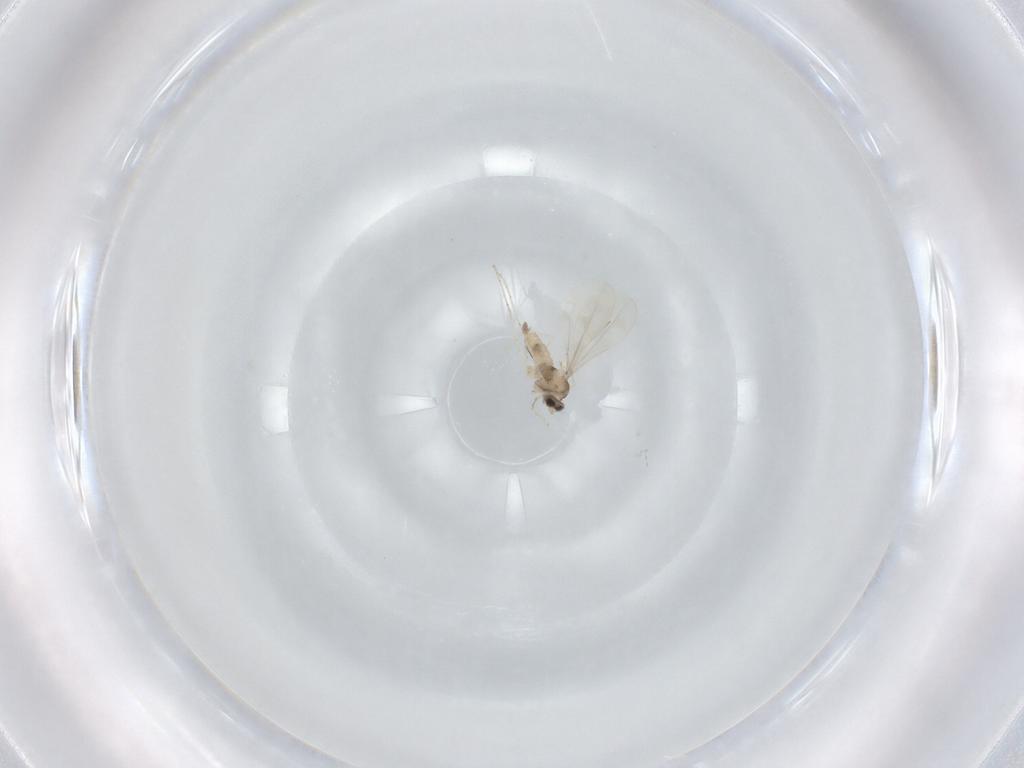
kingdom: Animalia
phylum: Arthropoda
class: Insecta
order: Diptera
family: Cecidomyiidae
